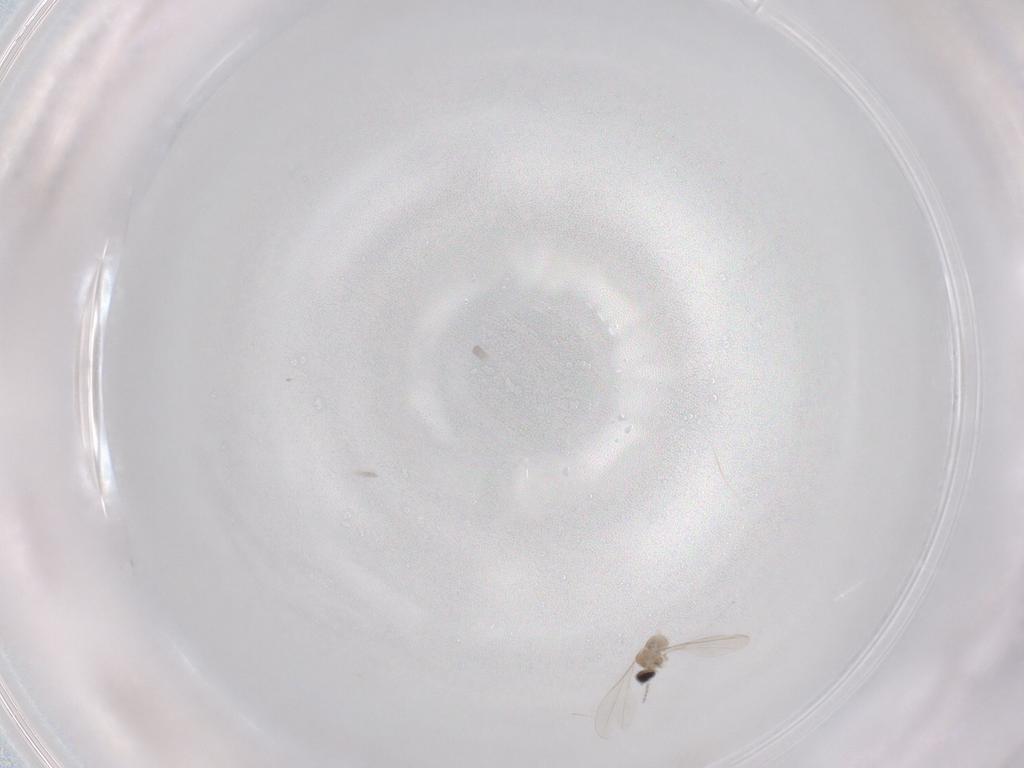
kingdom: Animalia
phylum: Arthropoda
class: Insecta
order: Diptera
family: Cecidomyiidae
